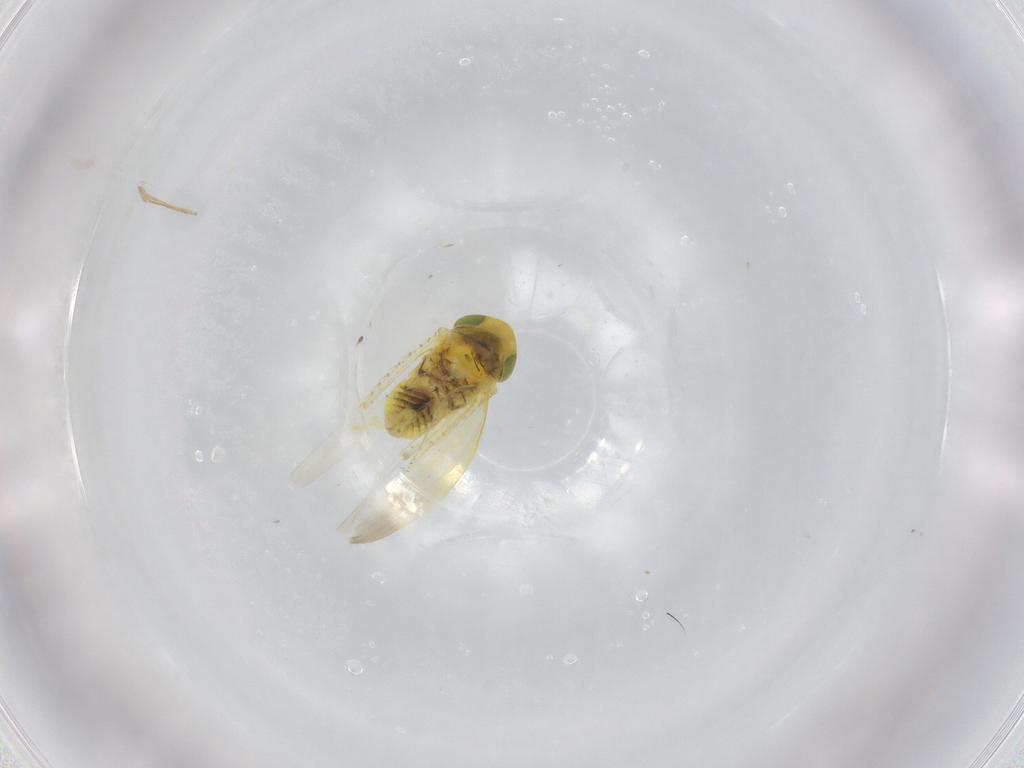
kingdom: Animalia
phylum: Arthropoda
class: Insecta
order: Hemiptera
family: Cicadellidae
